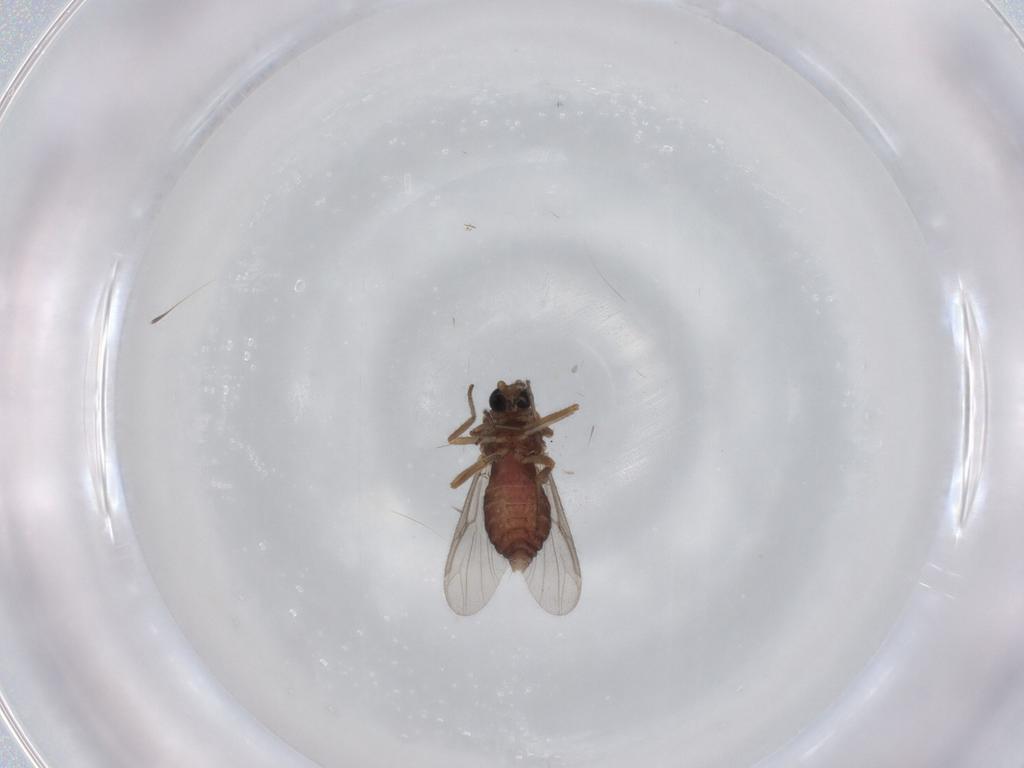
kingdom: Animalia
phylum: Arthropoda
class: Insecta
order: Diptera
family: Ceratopogonidae
